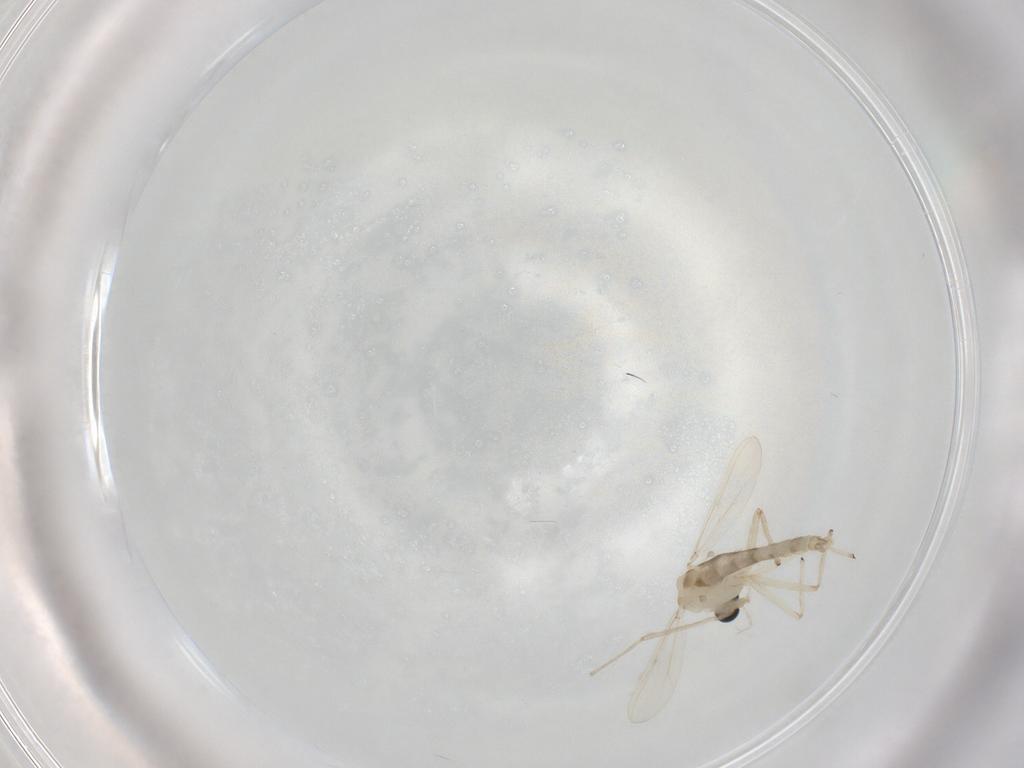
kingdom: Animalia
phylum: Arthropoda
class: Insecta
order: Diptera
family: Chironomidae
